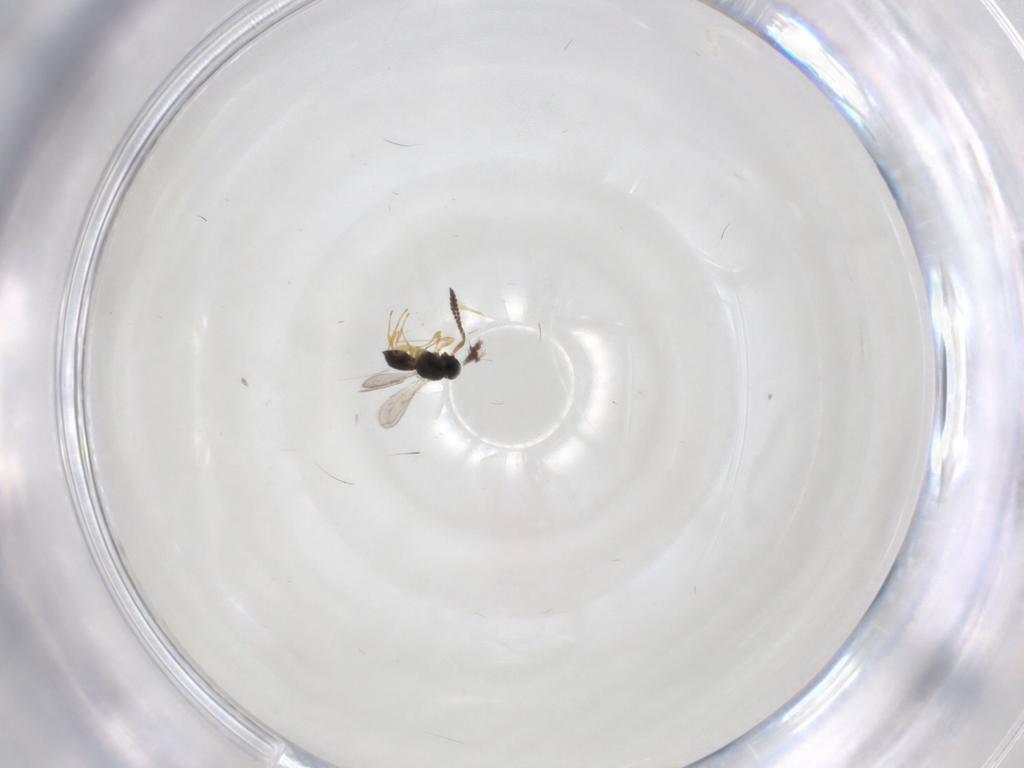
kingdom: Animalia
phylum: Arthropoda
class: Insecta
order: Hymenoptera
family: Scelionidae
